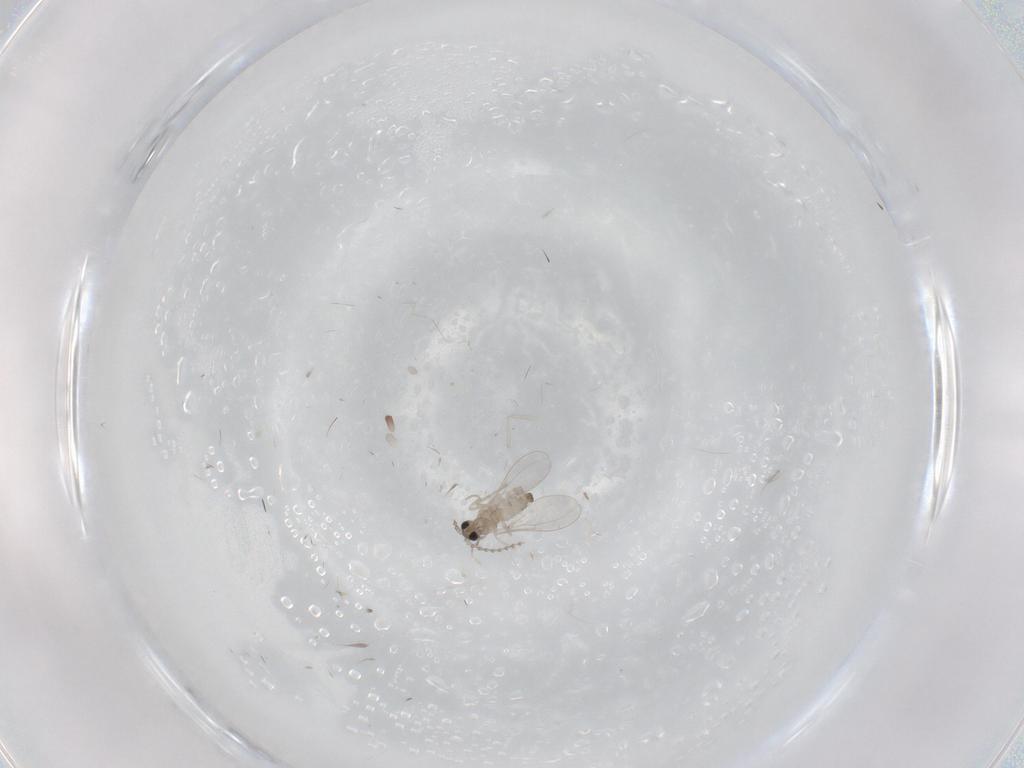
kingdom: Animalia
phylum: Arthropoda
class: Insecta
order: Diptera
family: Cecidomyiidae
